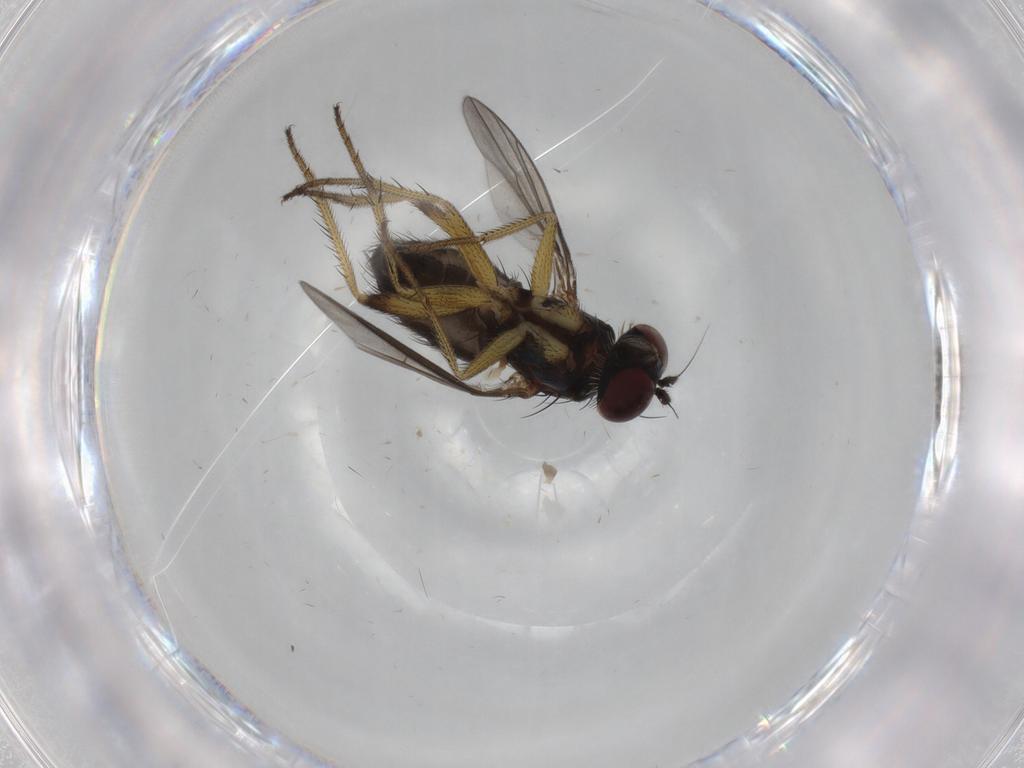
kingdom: Animalia
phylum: Arthropoda
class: Insecta
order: Diptera
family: Dolichopodidae
